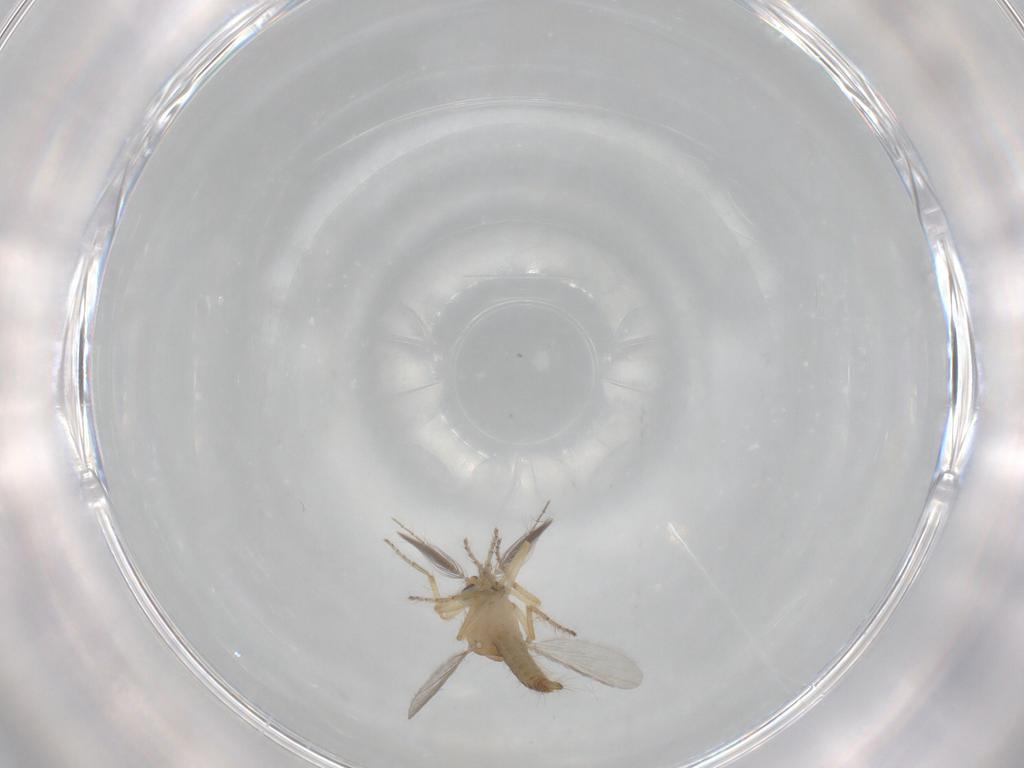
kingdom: Animalia
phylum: Arthropoda
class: Insecta
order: Diptera
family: Ceratopogonidae
